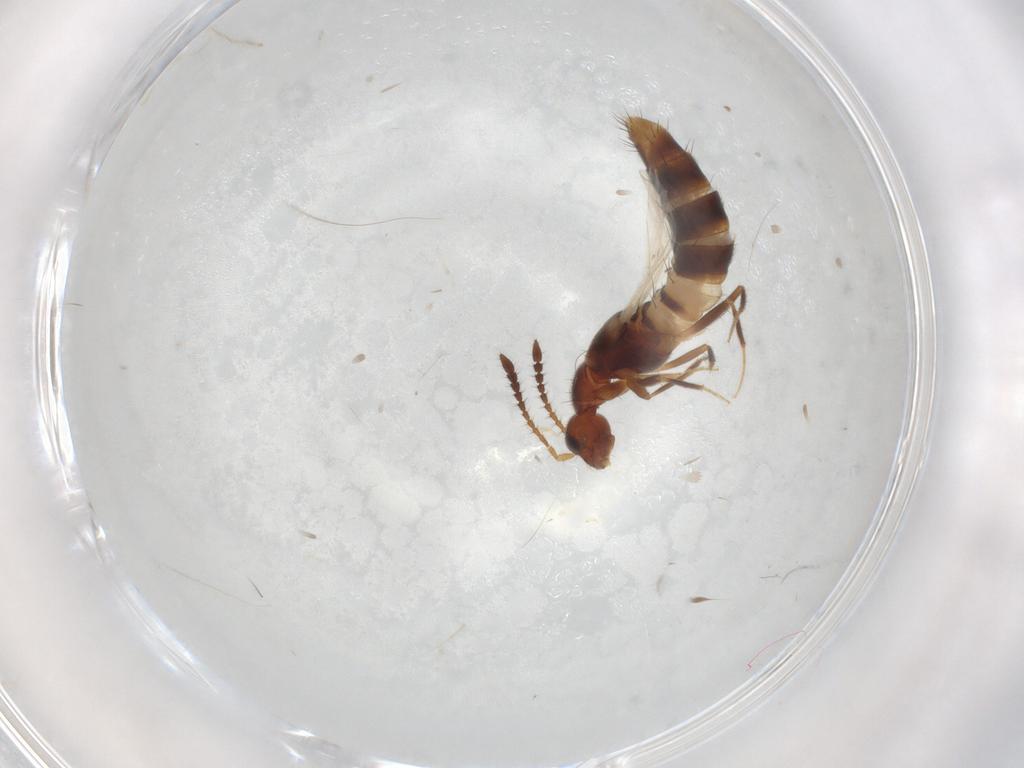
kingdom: Animalia
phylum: Arthropoda
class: Insecta
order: Coleoptera
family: Staphylinidae
